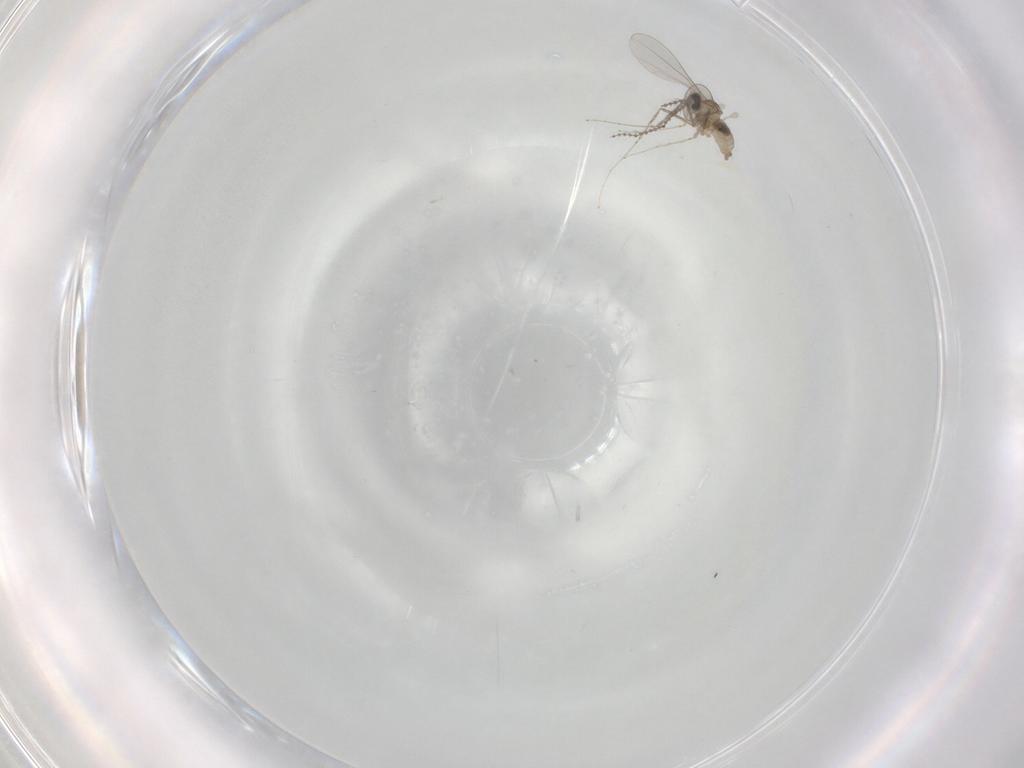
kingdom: Animalia
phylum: Arthropoda
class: Insecta
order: Diptera
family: Cecidomyiidae
